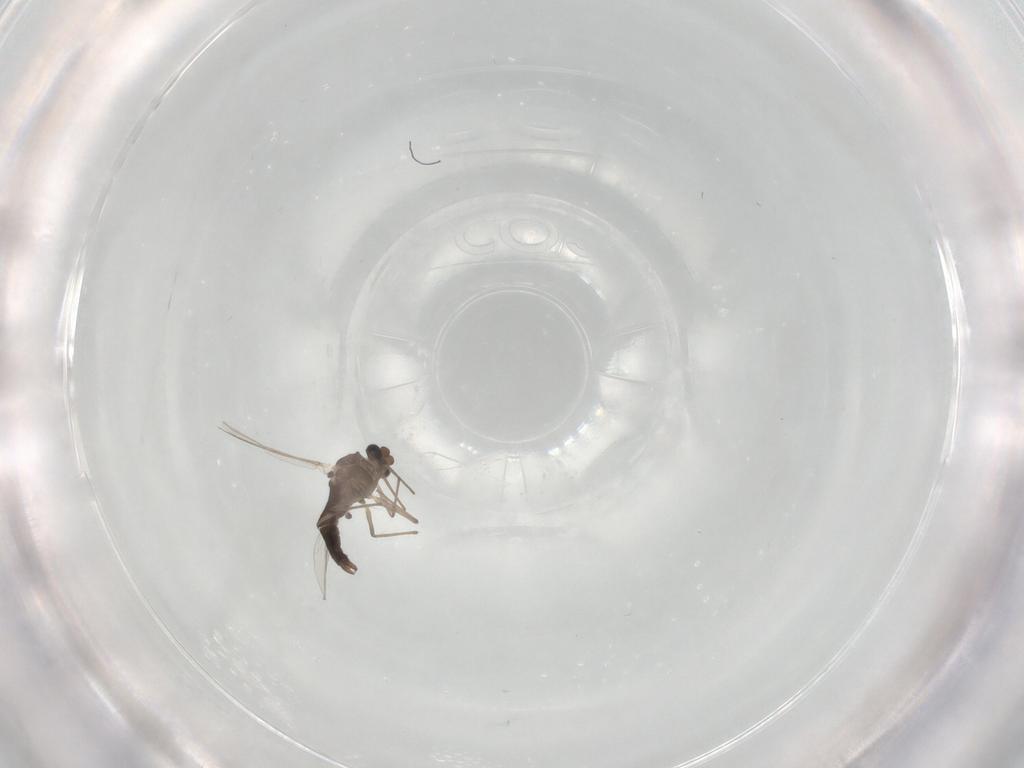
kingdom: Animalia
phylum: Arthropoda
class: Insecta
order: Diptera
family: Chironomidae
